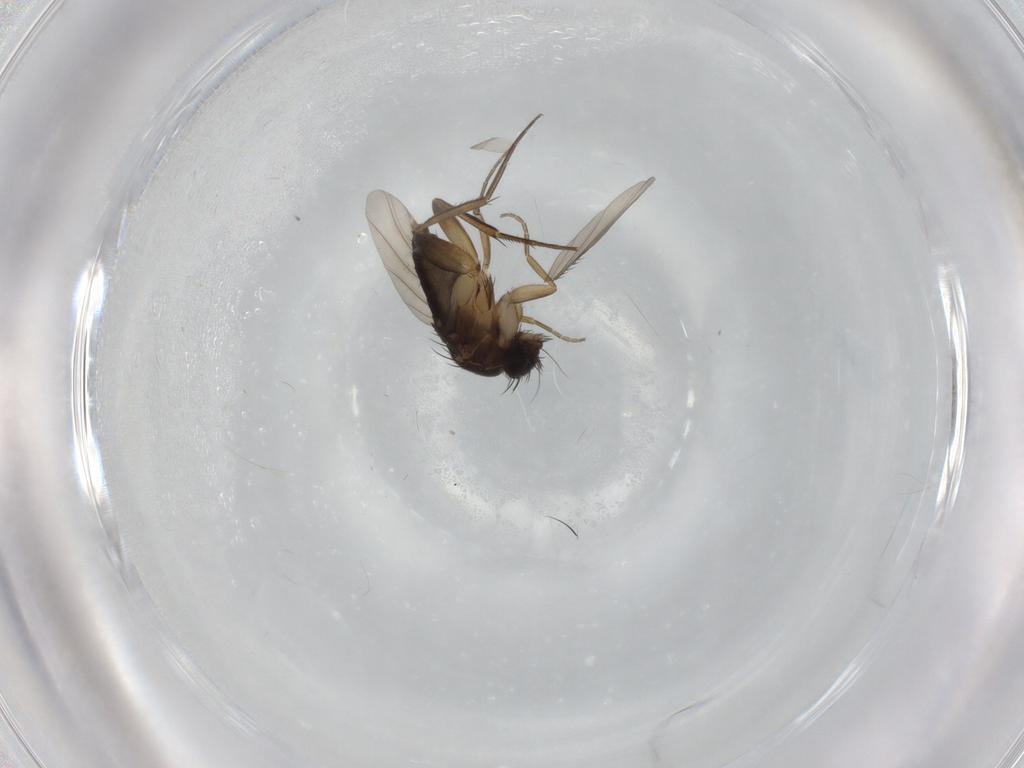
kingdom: Animalia
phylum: Arthropoda
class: Insecta
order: Diptera
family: Phoridae
